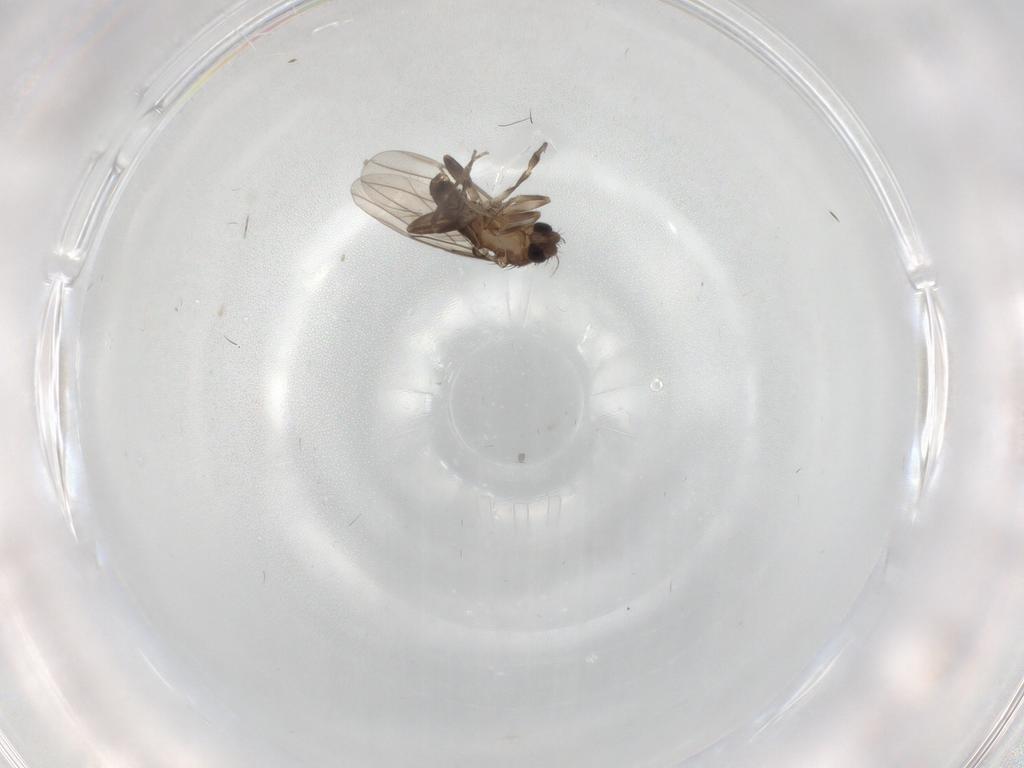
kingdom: Animalia
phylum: Arthropoda
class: Insecta
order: Diptera
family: Phoridae
